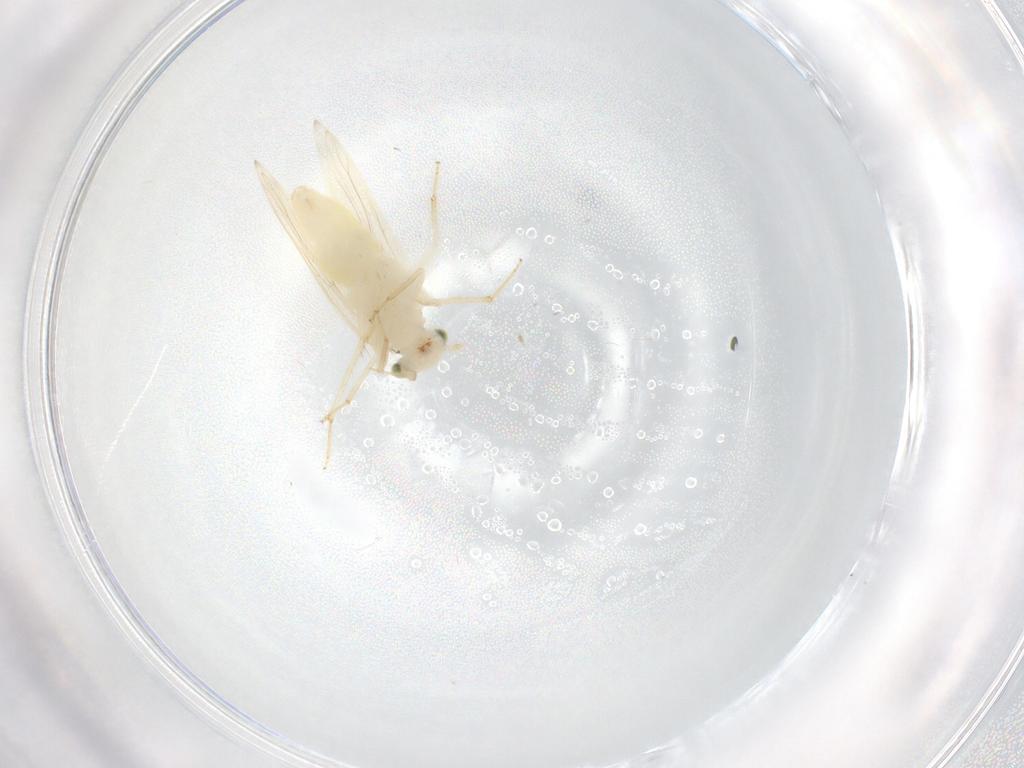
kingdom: Animalia
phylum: Arthropoda
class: Insecta
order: Psocodea
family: Lepidopsocidae
